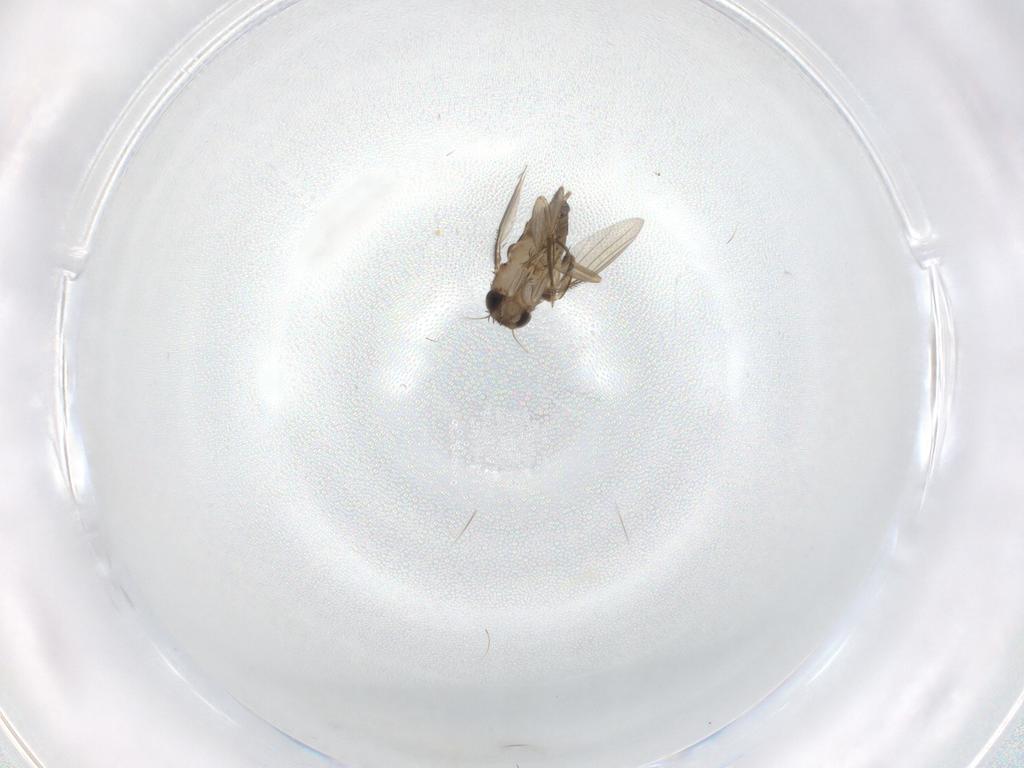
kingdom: Animalia
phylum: Arthropoda
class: Insecta
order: Diptera
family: Phoridae
